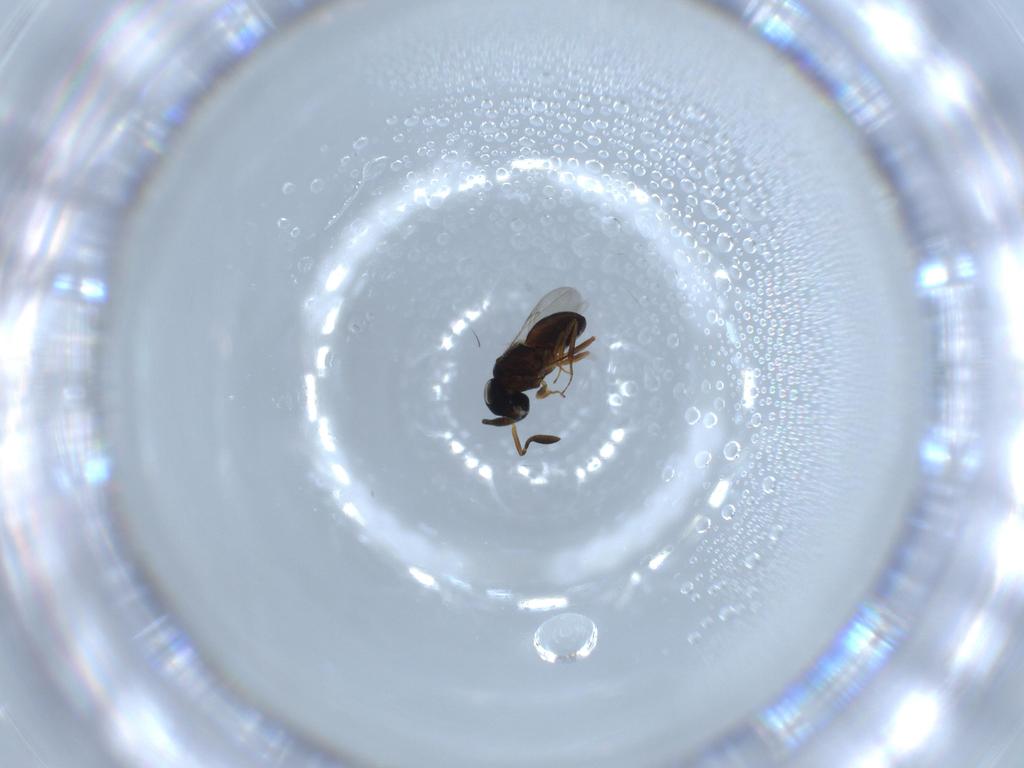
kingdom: Animalia
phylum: Arthropoda
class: Insecta
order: Coleoptera
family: Curculionidae
